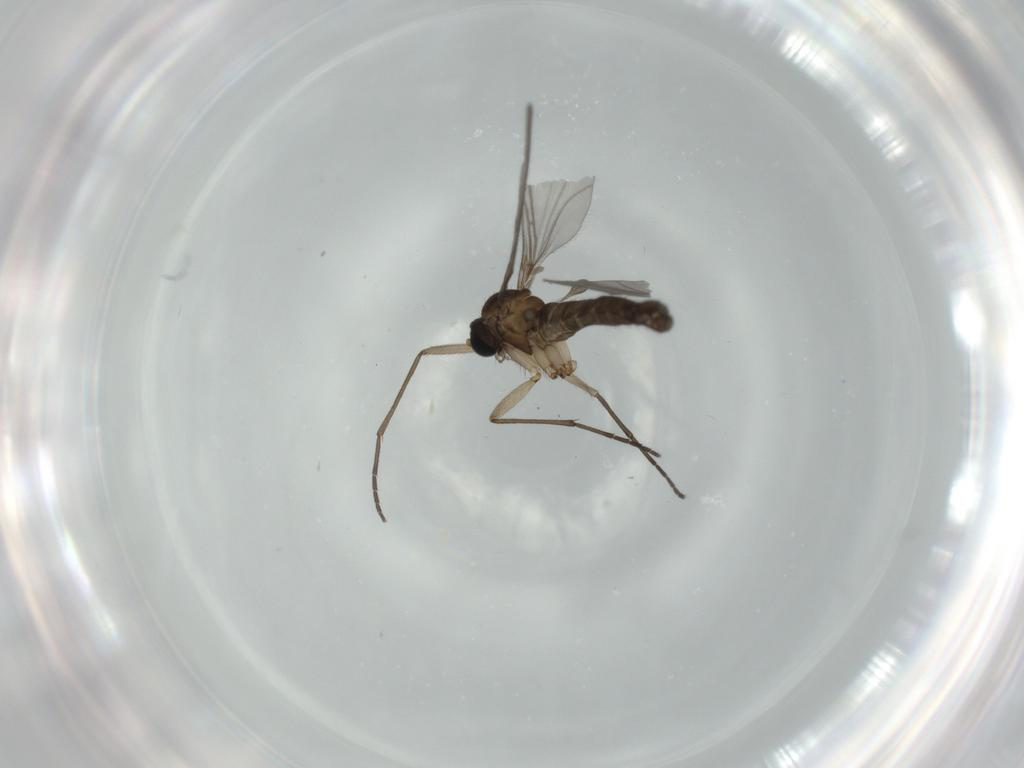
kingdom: Animalia
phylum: Arthropoda
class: Insecta
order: Diptera
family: Sciaridae
